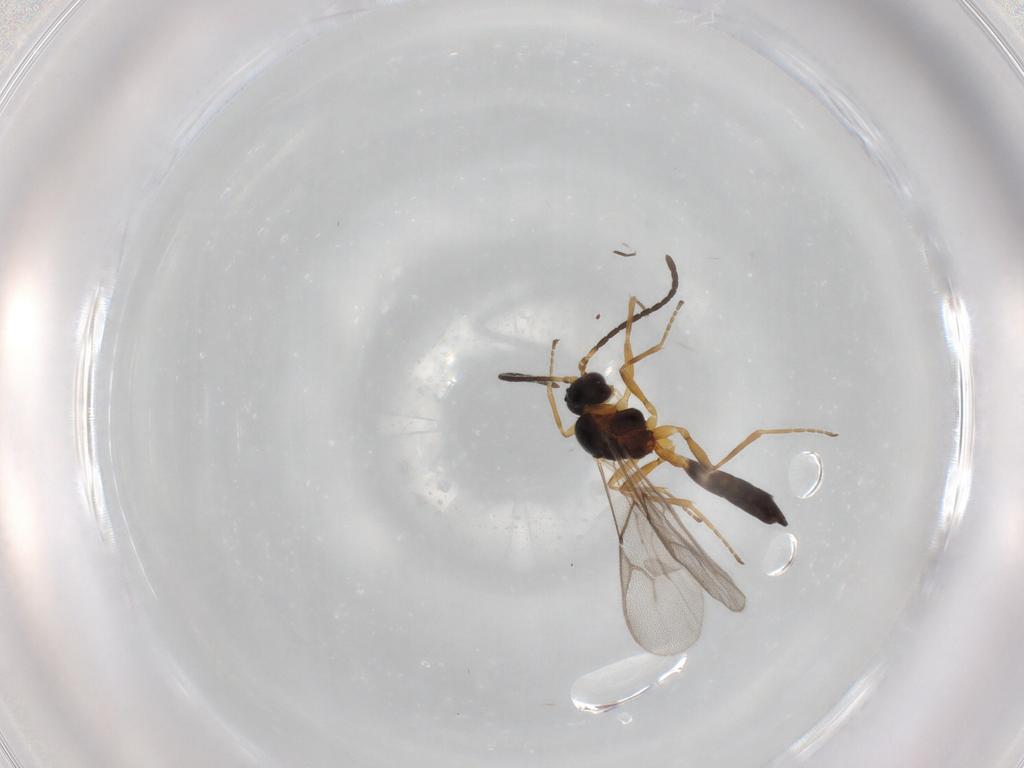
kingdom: Animalia
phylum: Arthropoda
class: Insecta
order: Hymenoptera
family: Braconidae
